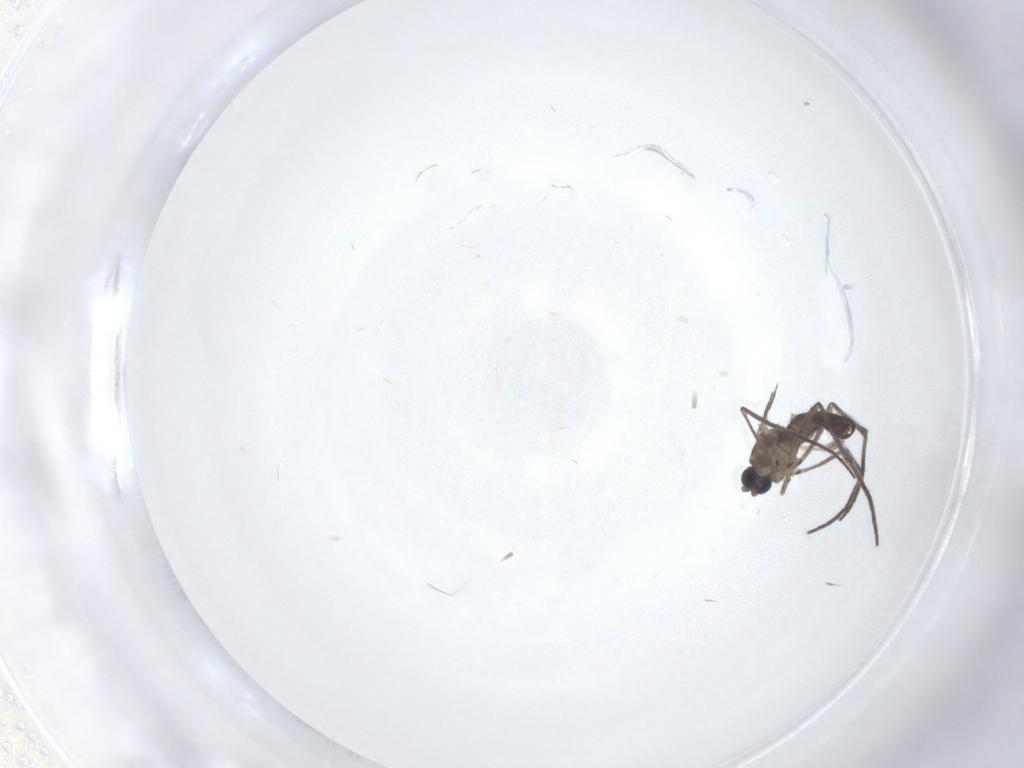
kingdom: Animalia
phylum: Arthropoda
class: Insecta
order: Diptera
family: Sciaridae
